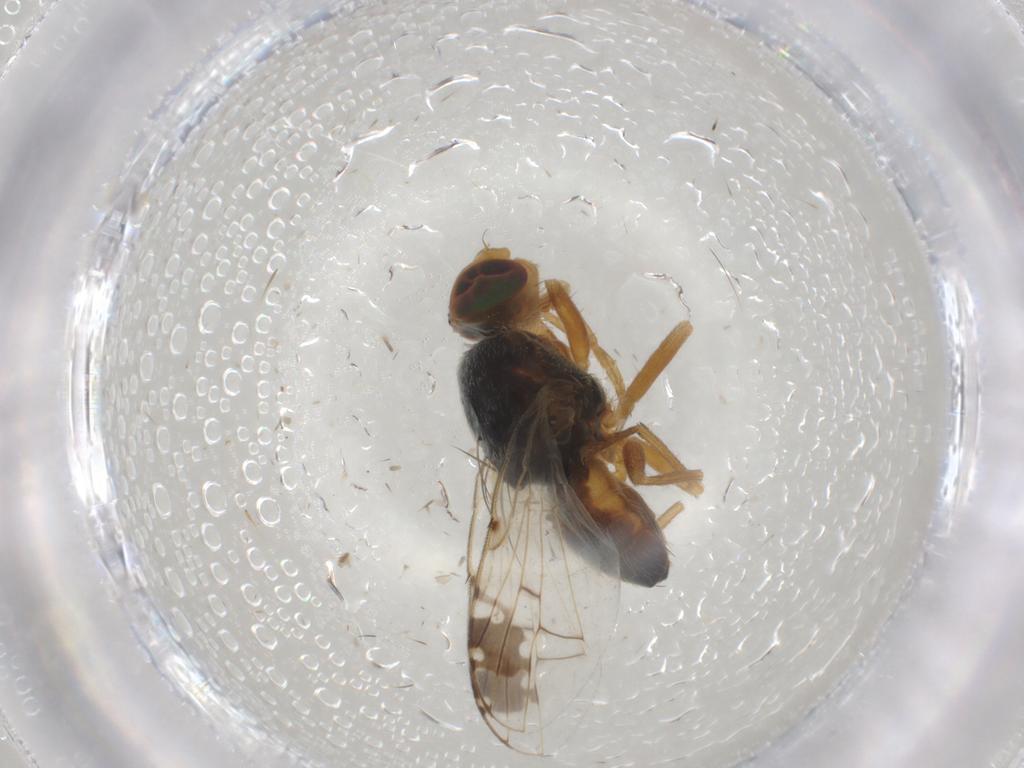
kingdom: Animalia
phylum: Arthropoda
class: Insecta
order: Diptera
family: Tephritidae
